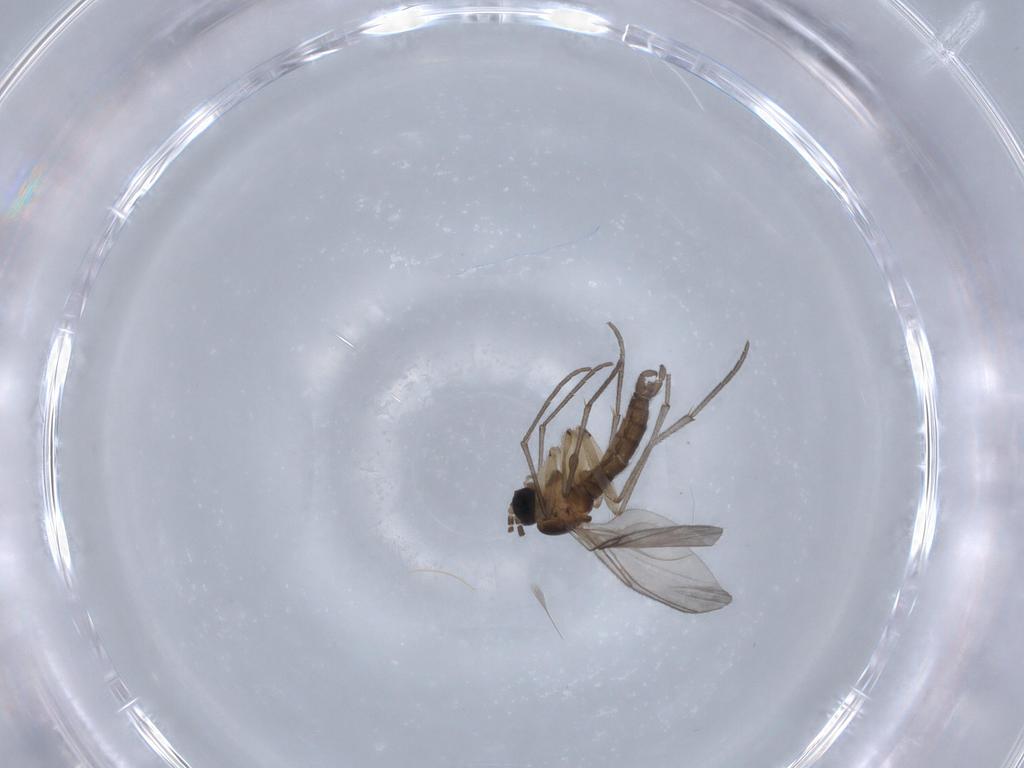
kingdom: Animalia
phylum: Arthropoda
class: Insecta
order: Diptera
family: Sciaridae
